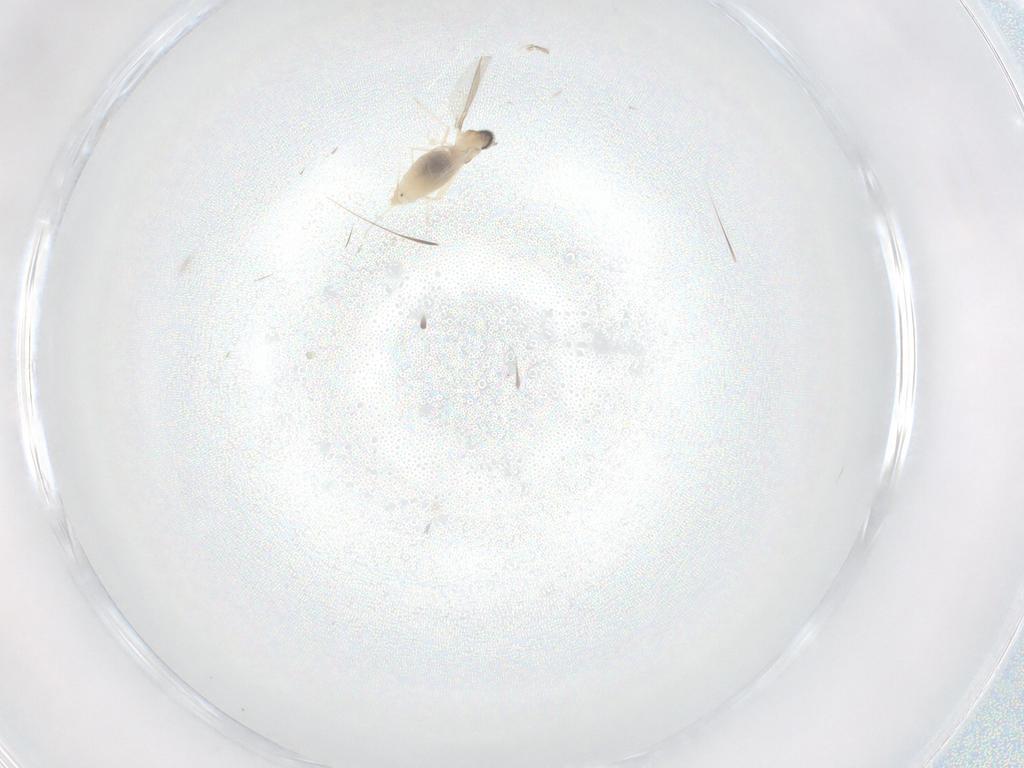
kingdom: Animalia
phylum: Arthropoda
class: Insecta
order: Diptera
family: Cecidomyiidae
